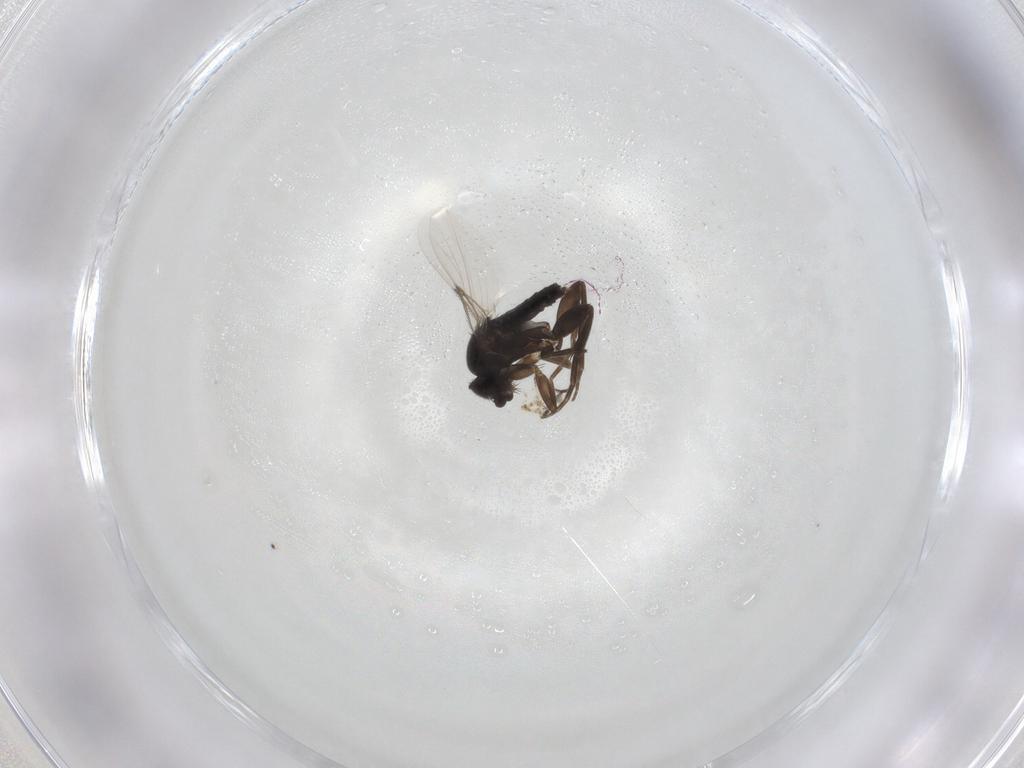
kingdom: Animalia
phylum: Arthropoda
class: Insecta
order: Diptera
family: Phoridae
